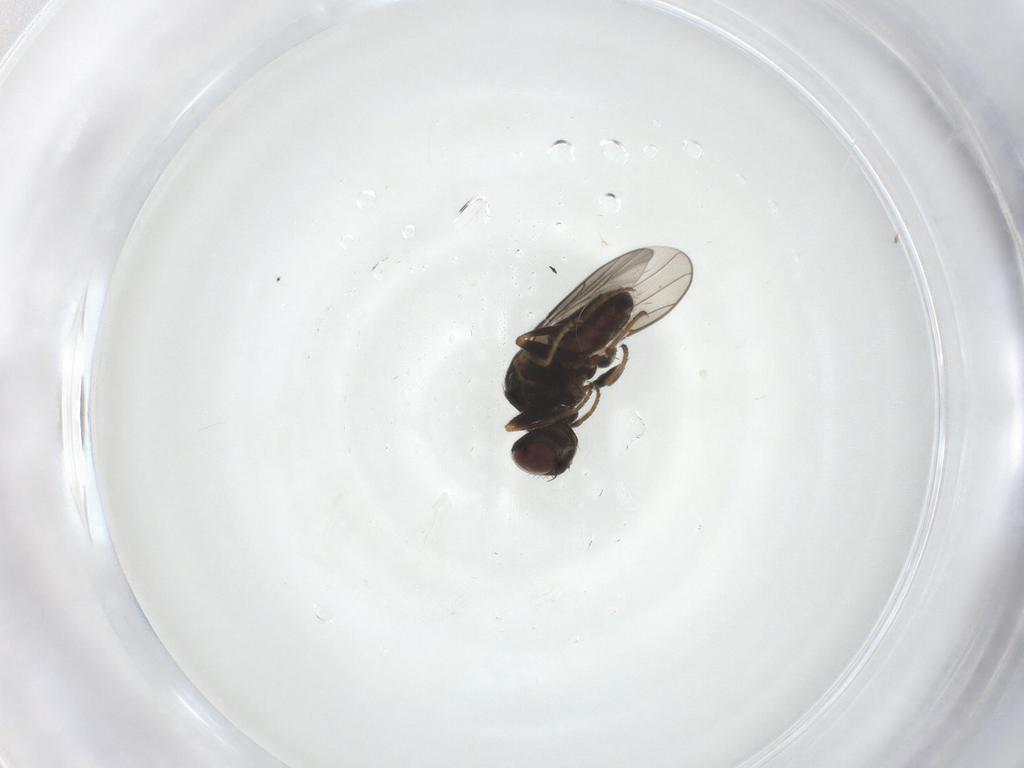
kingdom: Animalia
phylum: Arthropoda
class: Insecta
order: Diptera
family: Chloropidae
